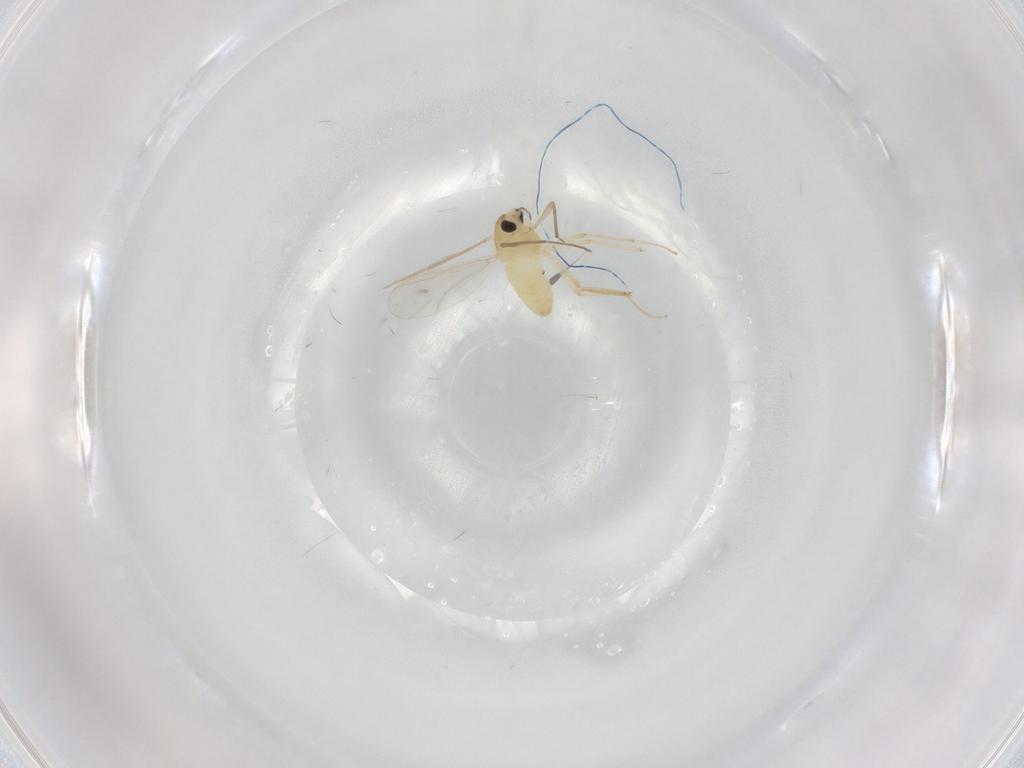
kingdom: Animalia
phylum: Arthropoda
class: Insecta
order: Diptera
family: Chironomidae
